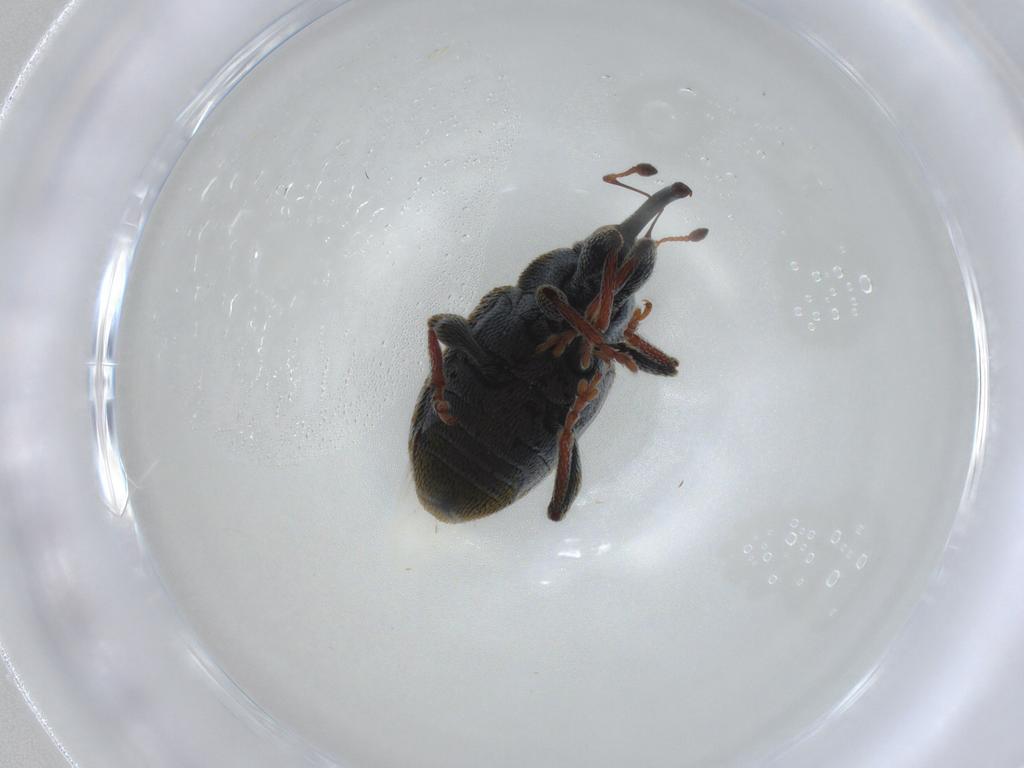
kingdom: Animalia
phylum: Arthropoda
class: Insecta
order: Coleoptera
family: Curculionidae
